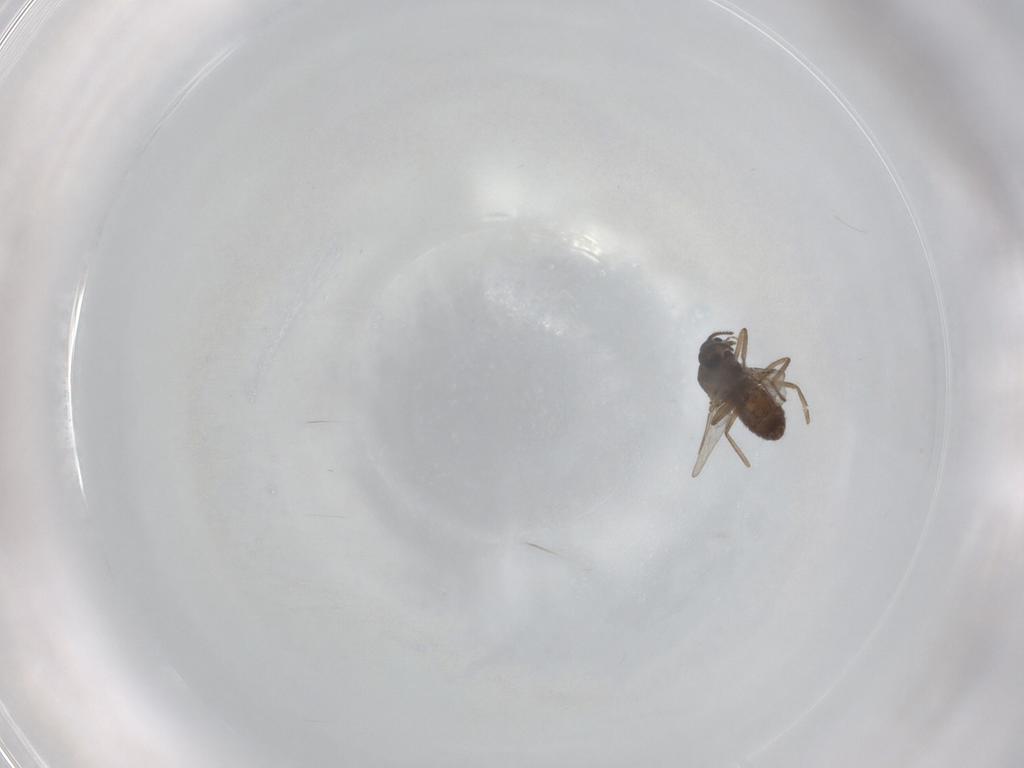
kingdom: Animalia
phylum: Arthropoda
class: Insecta
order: Diptera
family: Ceratopogonidae
